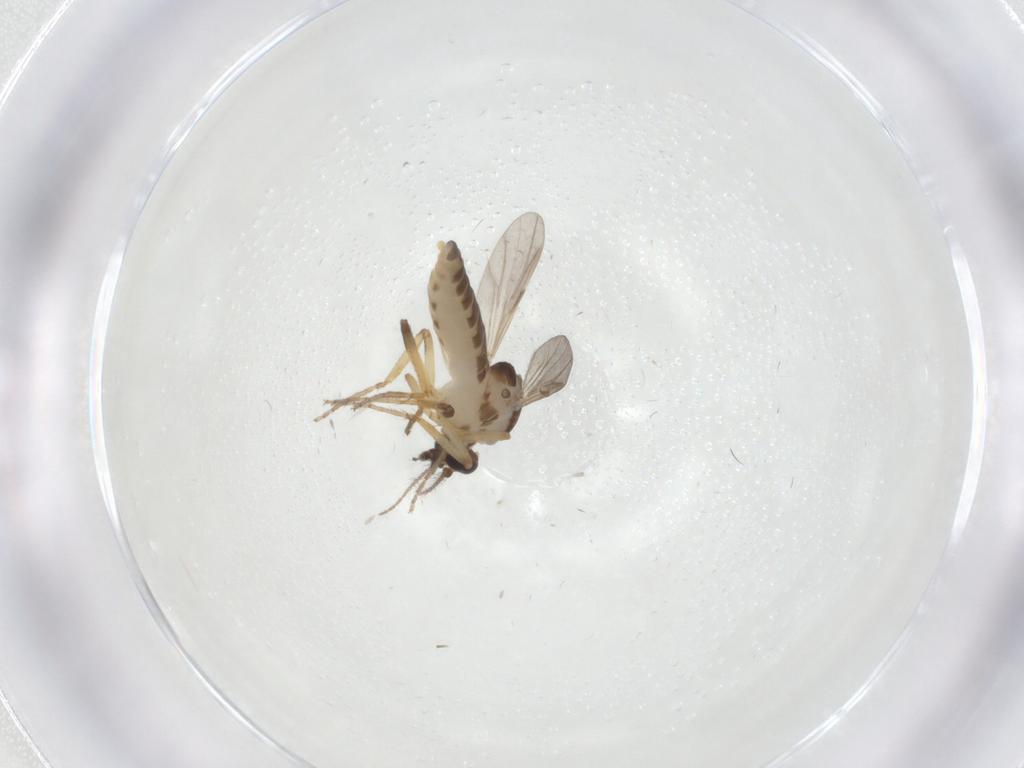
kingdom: Animalia
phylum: Arthropoda
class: Insecta
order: Diptera
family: Ceratopogonidae
